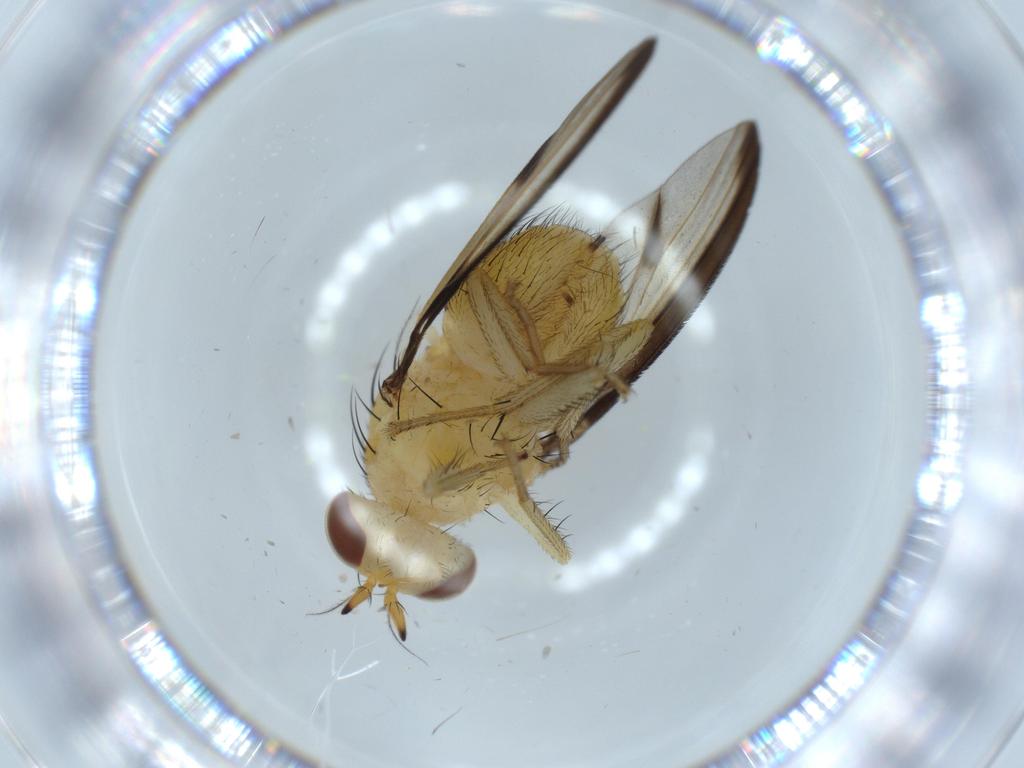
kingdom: Animalia
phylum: Arthropoda
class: Insecta
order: Diptera
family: Lauxaniidae
